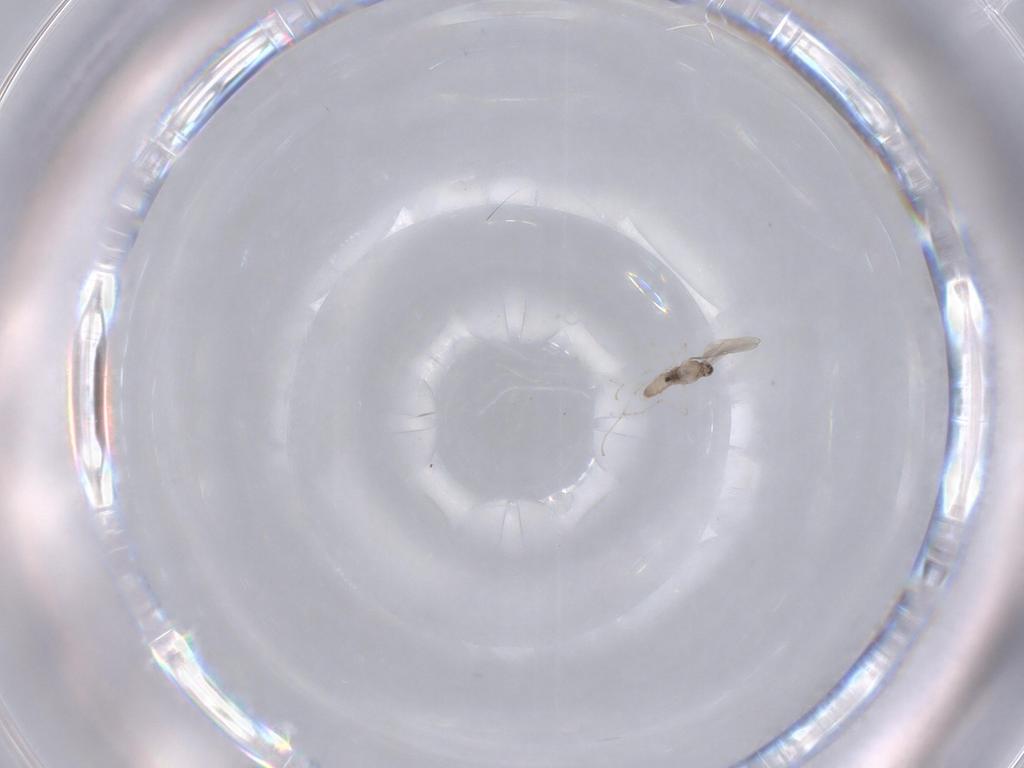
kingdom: Animalia
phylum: Arthropoda
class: Insecta
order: Diptera
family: Cecidomyiidae
